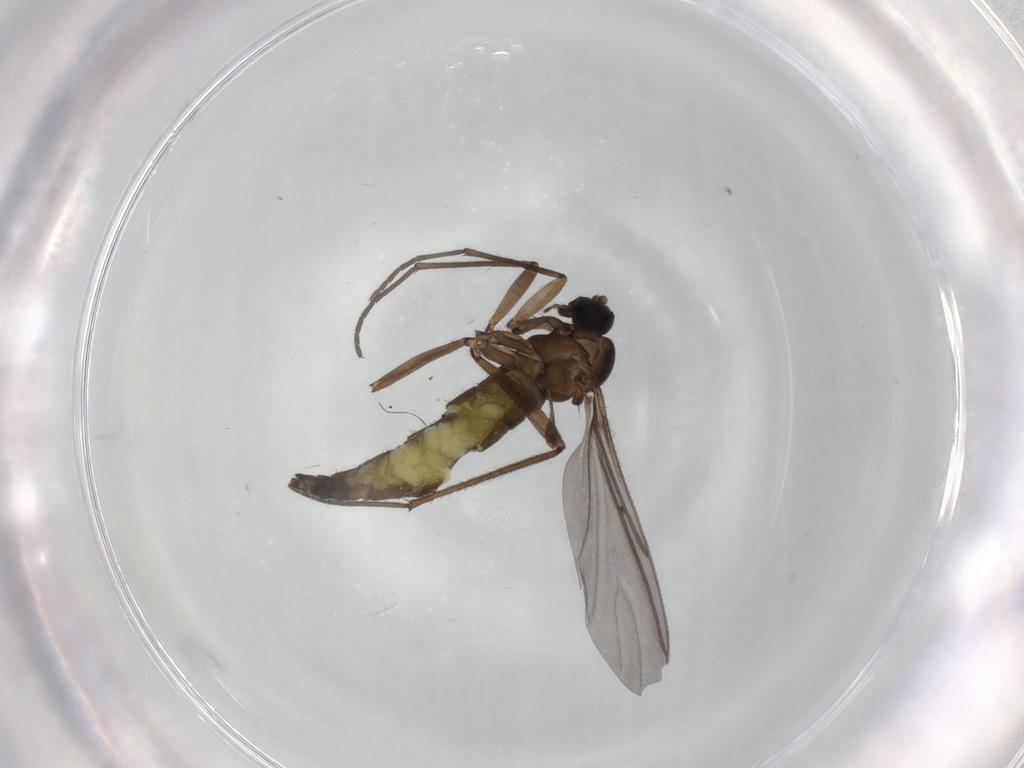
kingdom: Animalia
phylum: Arthropoda
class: Insecta
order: Diptera
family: Sciaridae
